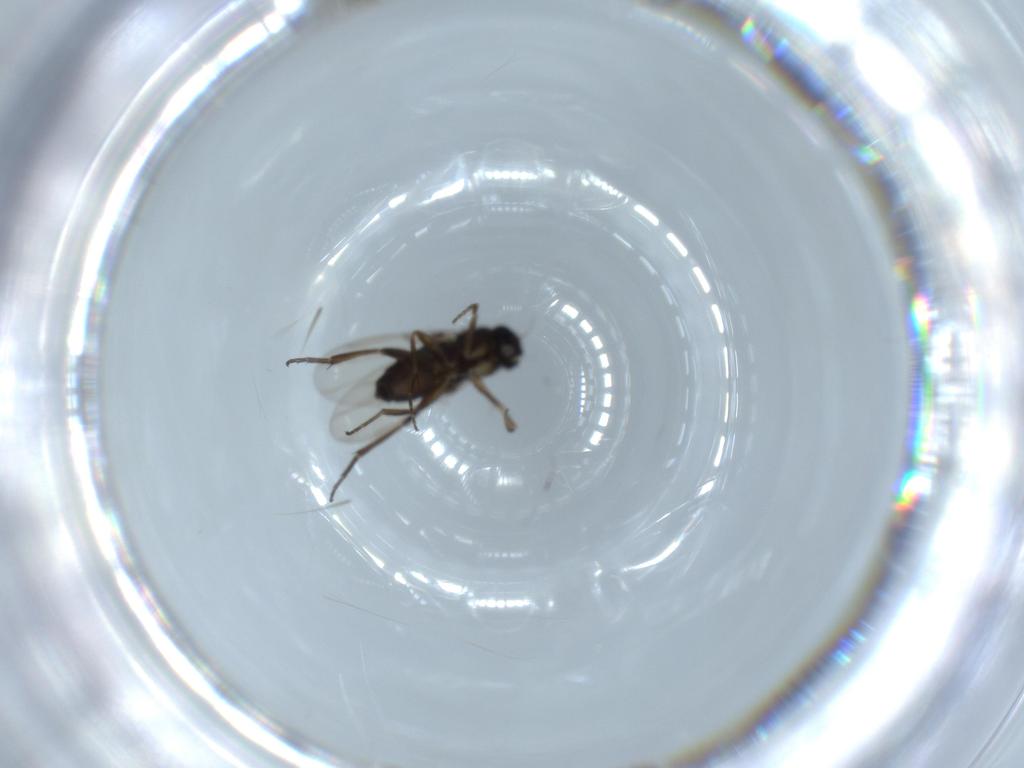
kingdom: Animalia
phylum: Arthropoda
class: Insecta
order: Diptera
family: Phoridae
